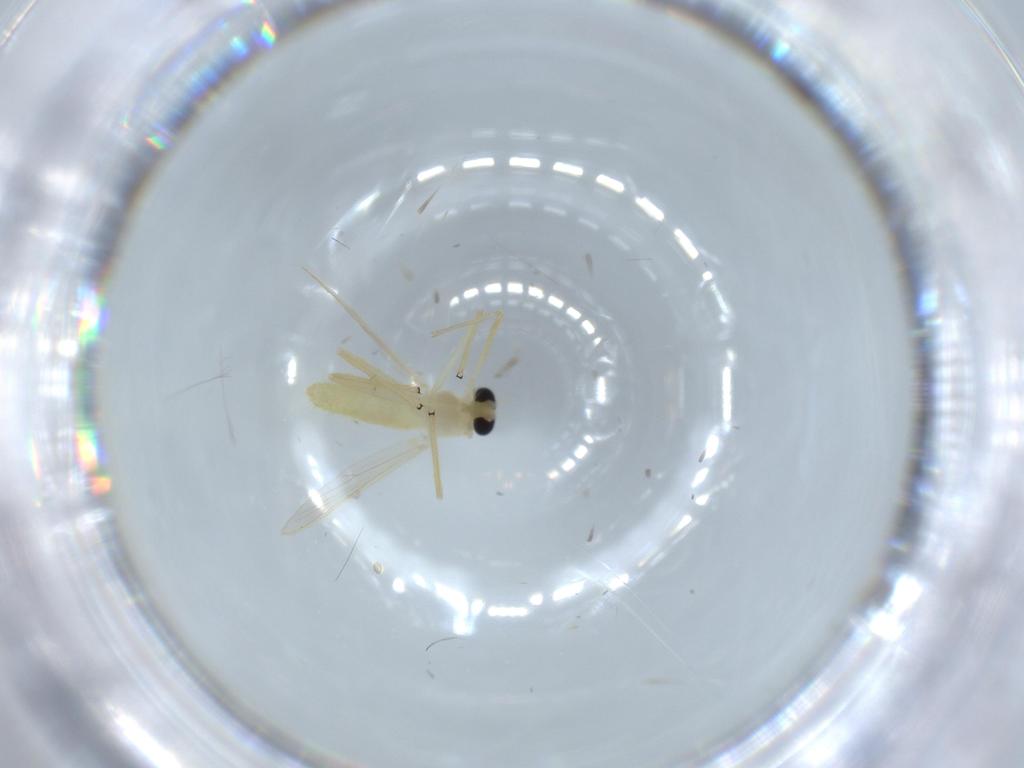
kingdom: Animalia
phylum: Arthropoda
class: Insecta
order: Diptera
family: Chironomidae
